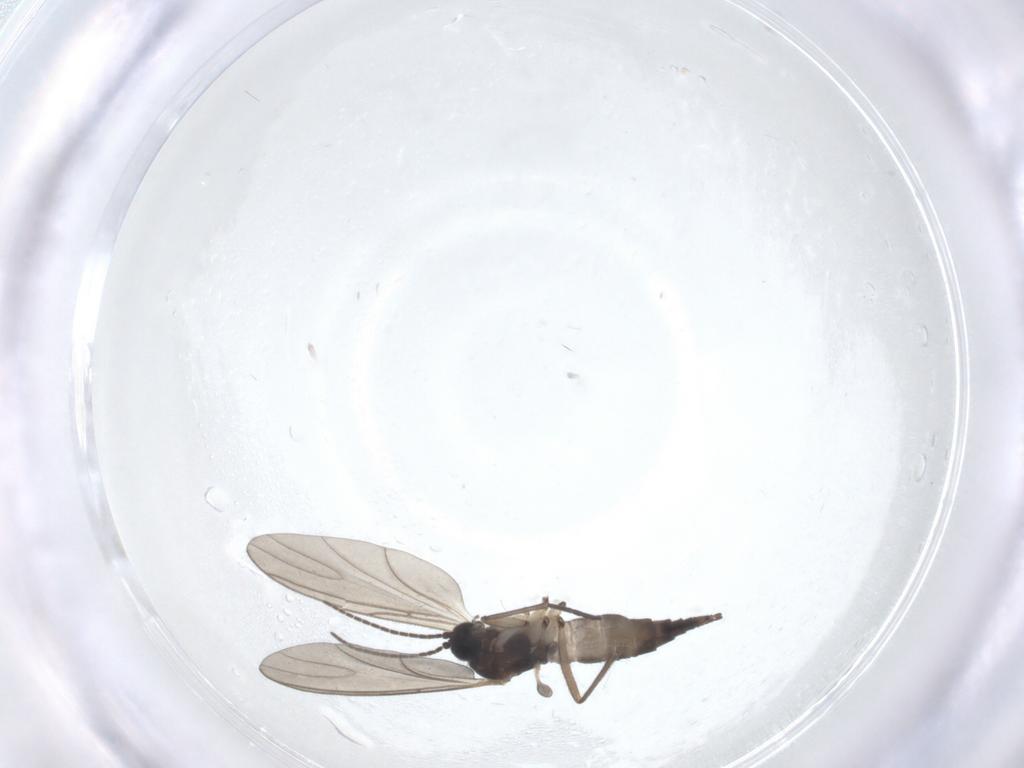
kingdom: Animalia
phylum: Arthropoda
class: Insecta
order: Diptera
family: Sciaridae
